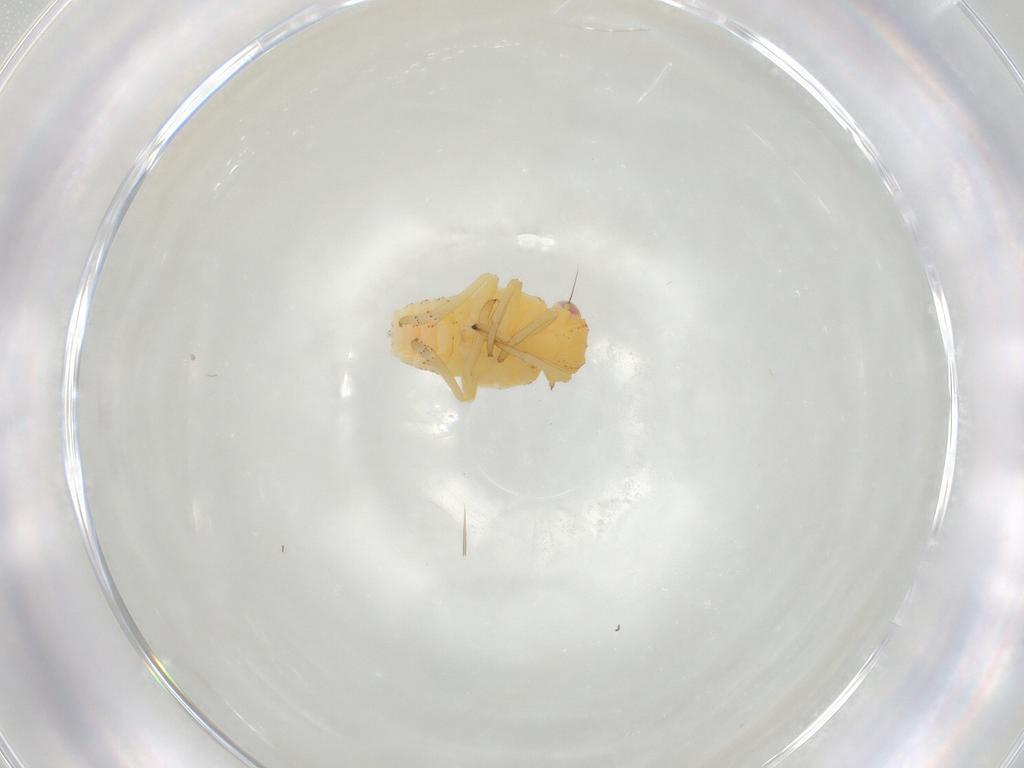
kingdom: Animalia
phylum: Arthropoda
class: Insecta
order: Hemiptera
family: Tropiduchidae
